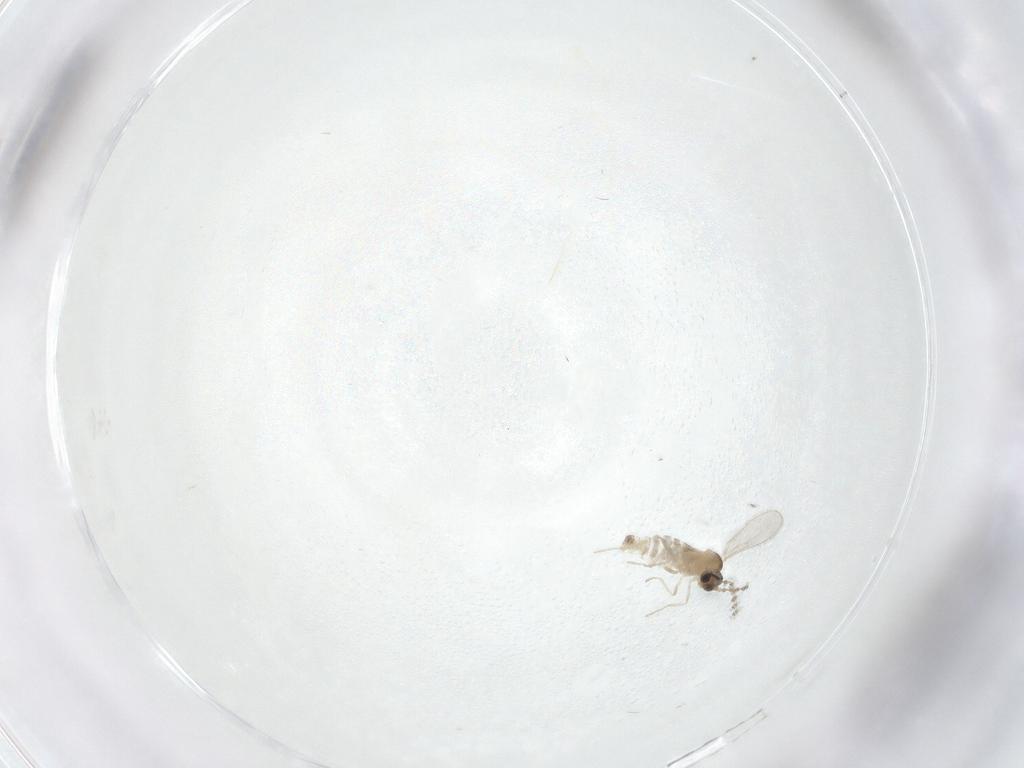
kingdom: Animalia
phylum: Arthropoda
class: Insecta
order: Diptera
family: Chironomidae
